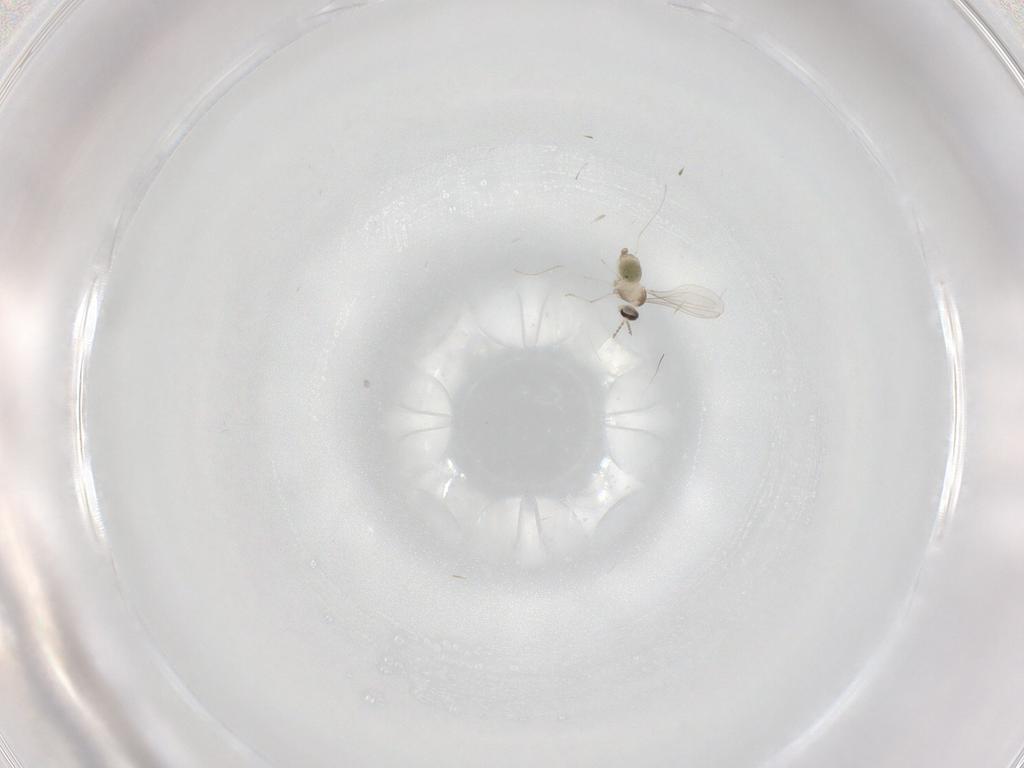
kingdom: Animalia
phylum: Arthropoda
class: Insecta
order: Diptera
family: Cecidomyiidae
